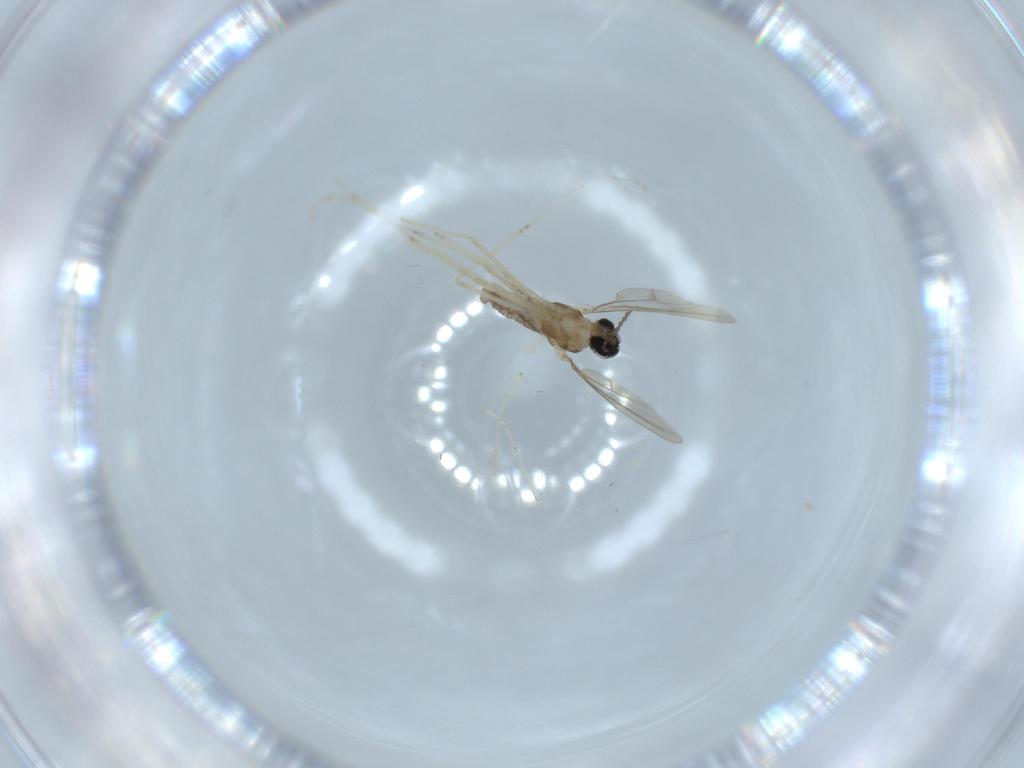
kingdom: Animalia
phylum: Arthropoda
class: Insecta
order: Diptera
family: Cecidomyiidae
